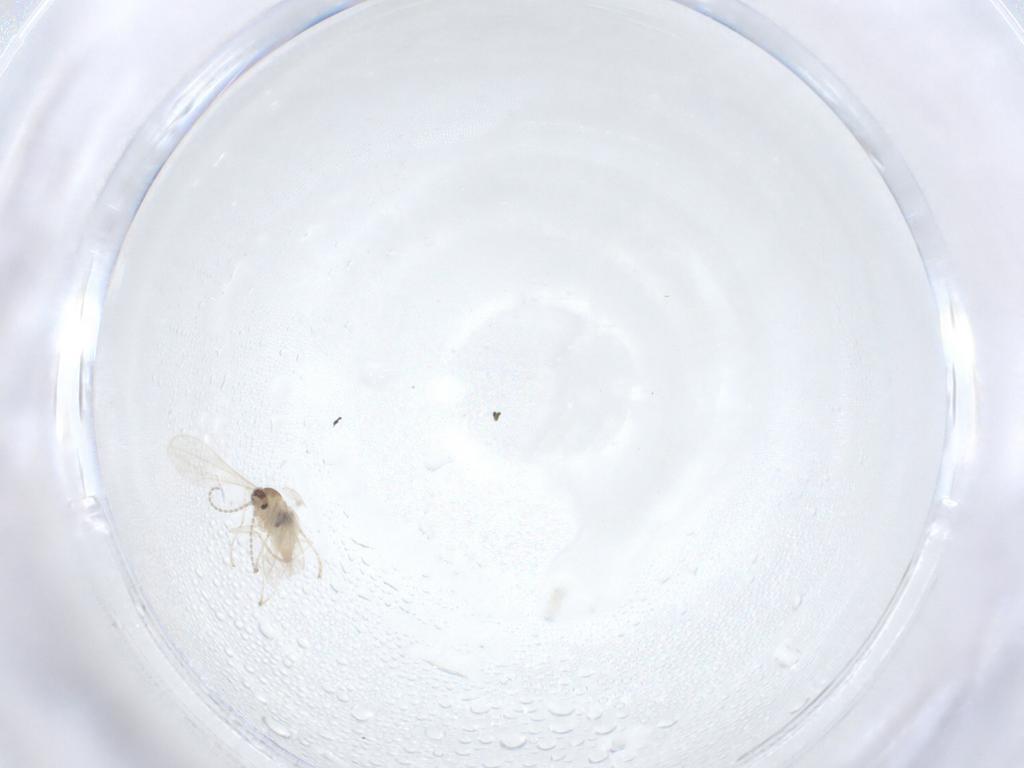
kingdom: Animalia
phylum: Arthropoda
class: Insecta
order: Diptera
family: Cecidomyiidae
